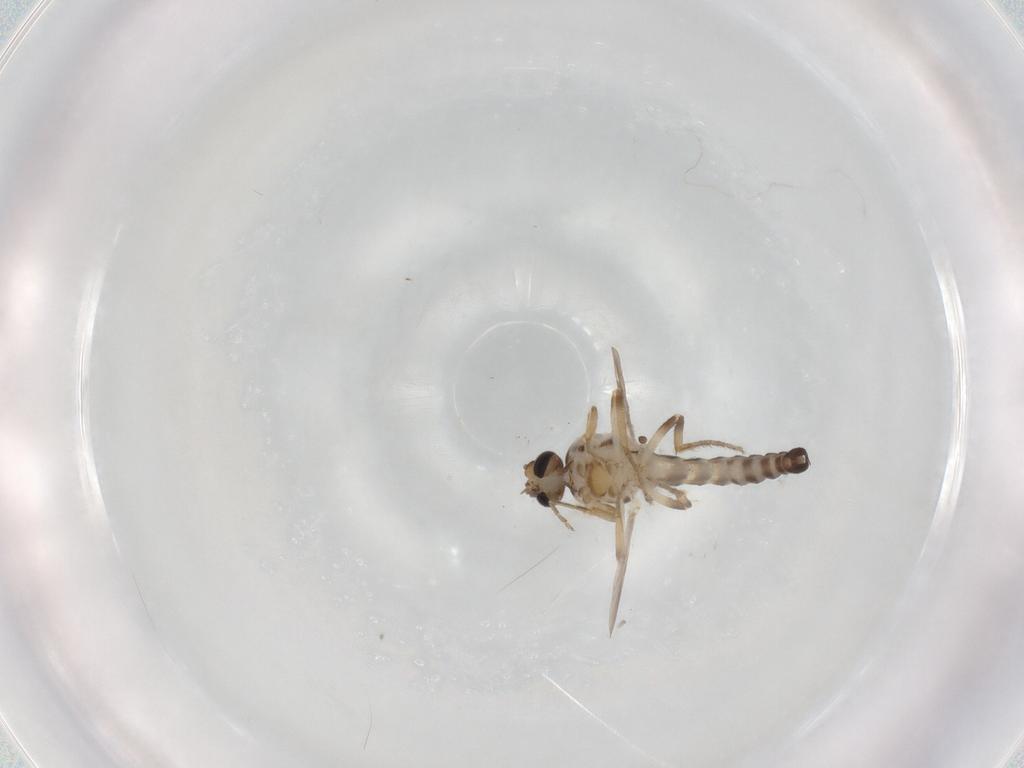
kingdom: Animalia
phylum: Arthropoda
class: Insecta
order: Diptera
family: Ceratopogonidae
